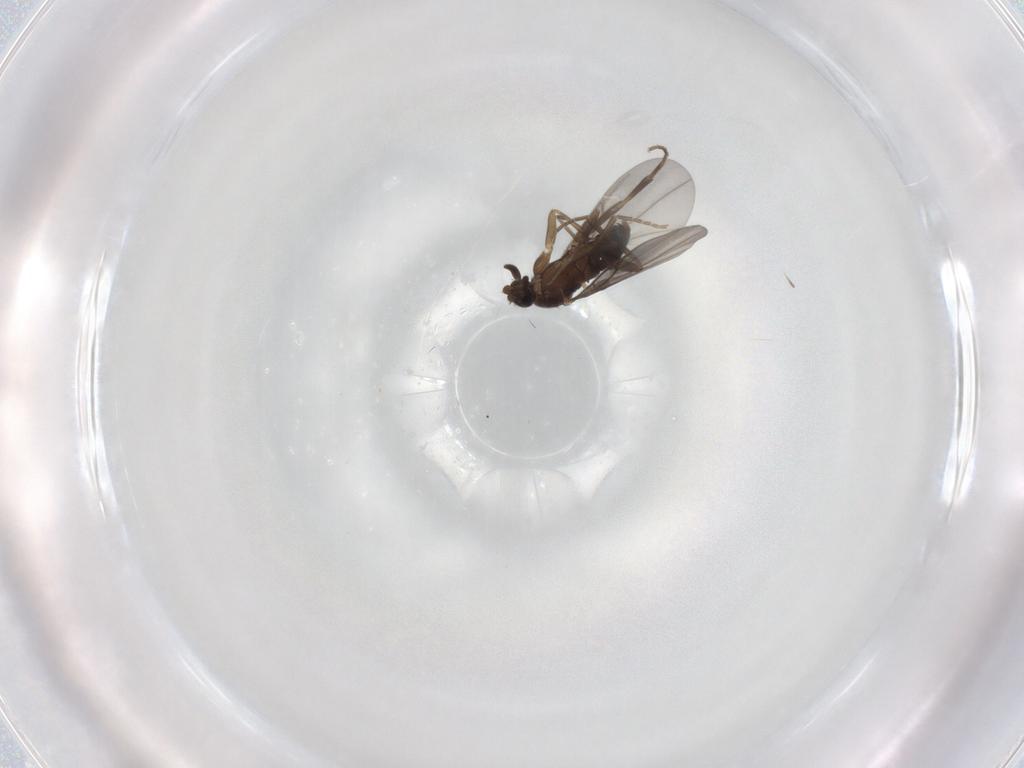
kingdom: Animalia
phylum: Arthropoda
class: Insecta
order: Diptera
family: Phoridae
